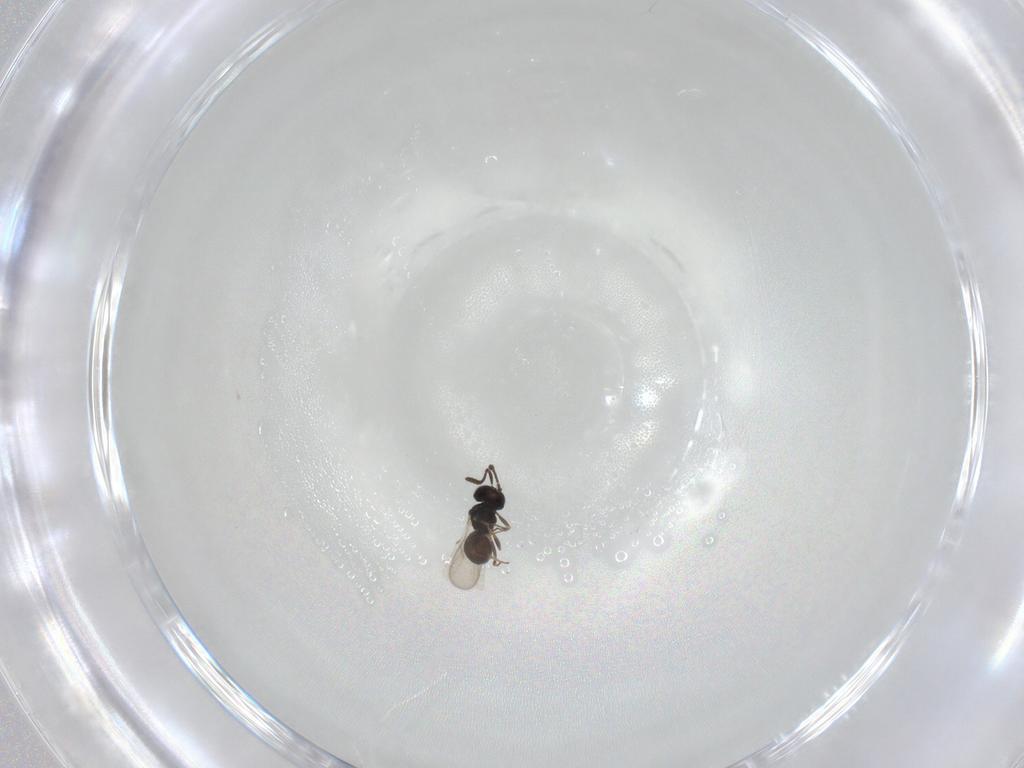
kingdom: Animalia
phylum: Arthropoda
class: Insecta
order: Hymenoptera
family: Scelionidae
